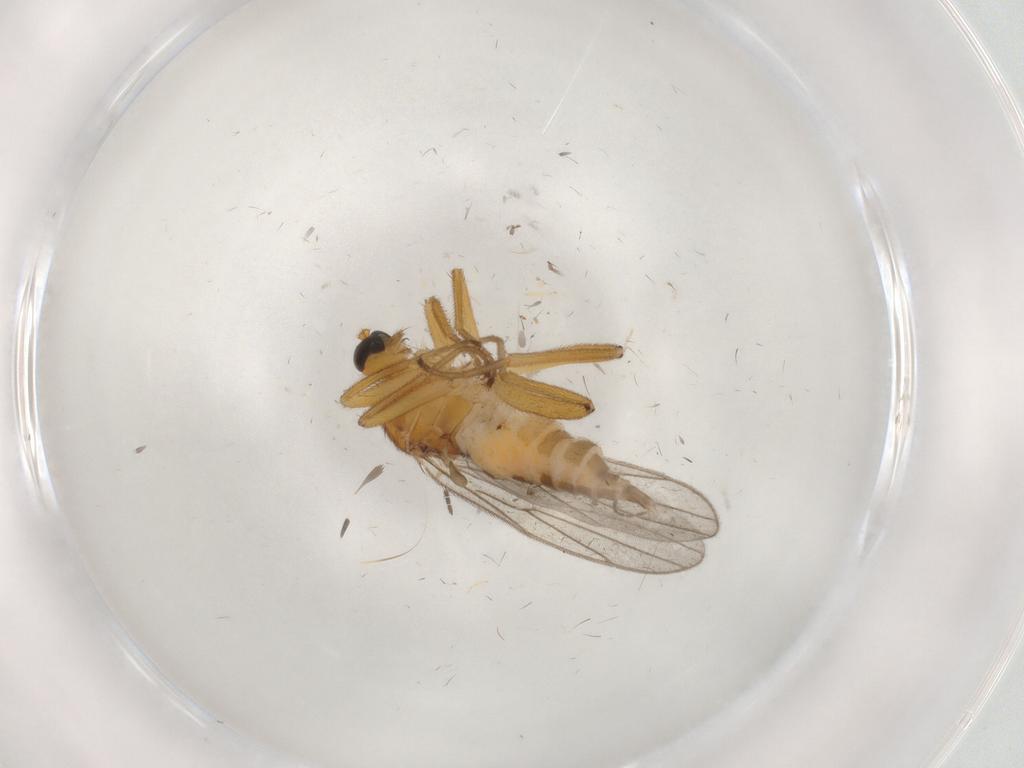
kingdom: Animalia
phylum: Arthropoda
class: Insecta
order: Diptera
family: Hybotidae
